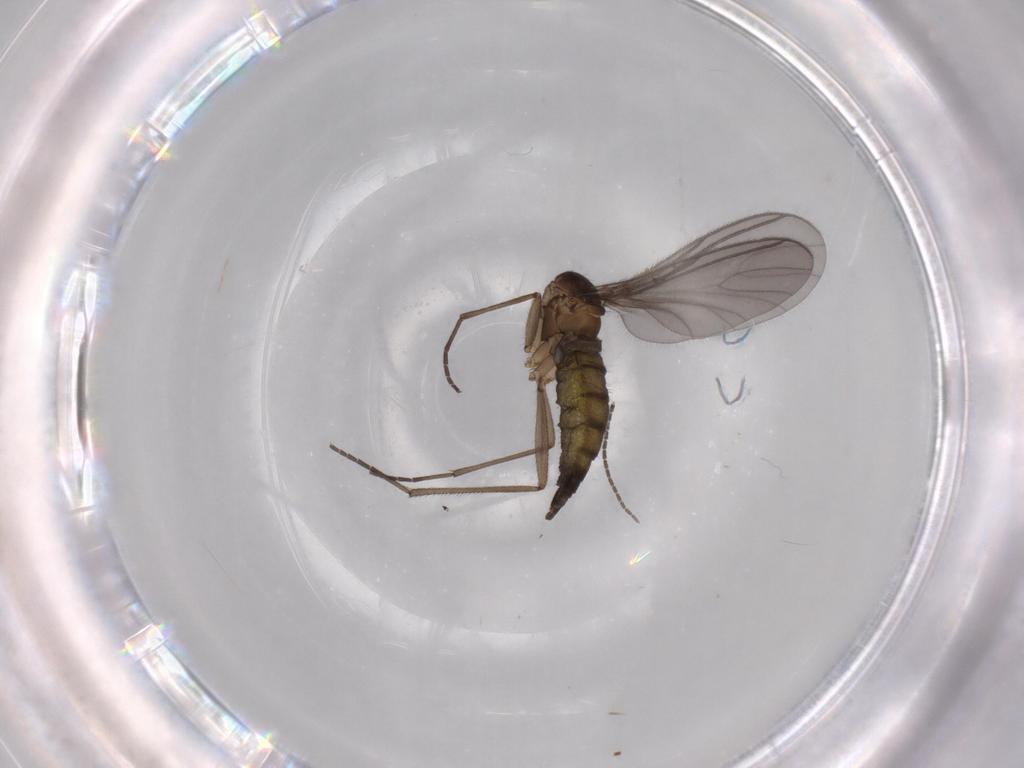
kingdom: Animalia
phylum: Arthropoda
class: Insecta
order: Diptera
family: Sciaridae
